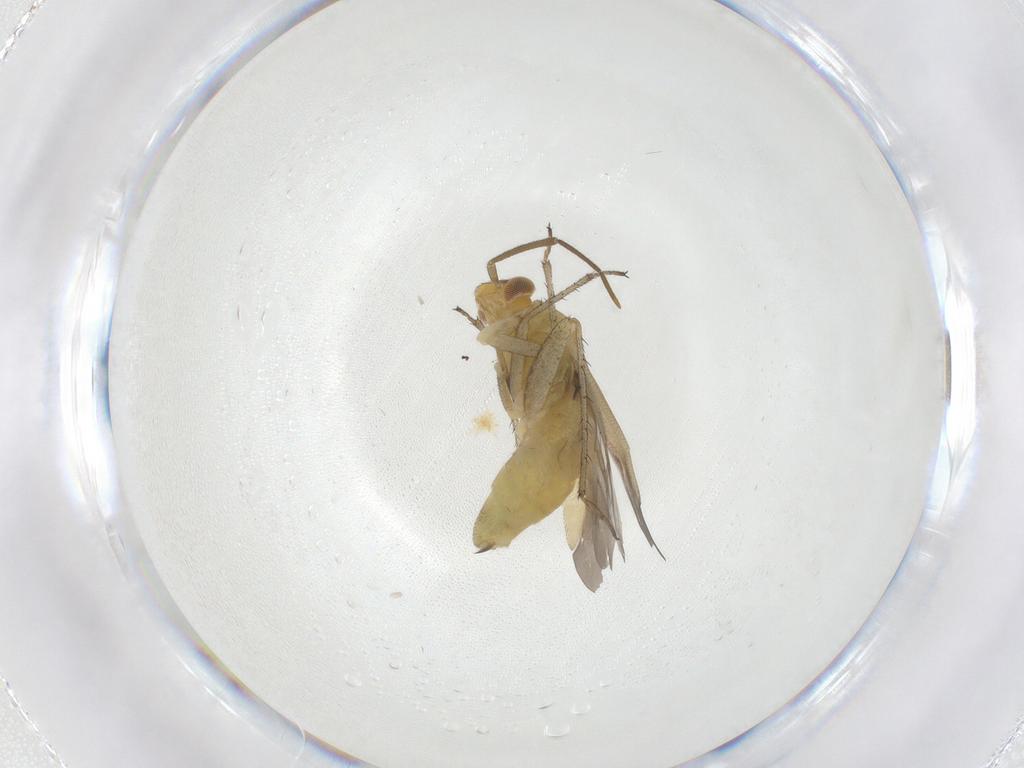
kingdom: Animalia
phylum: Arthropoda
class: Insecta
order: Hemiptera
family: Miridae
